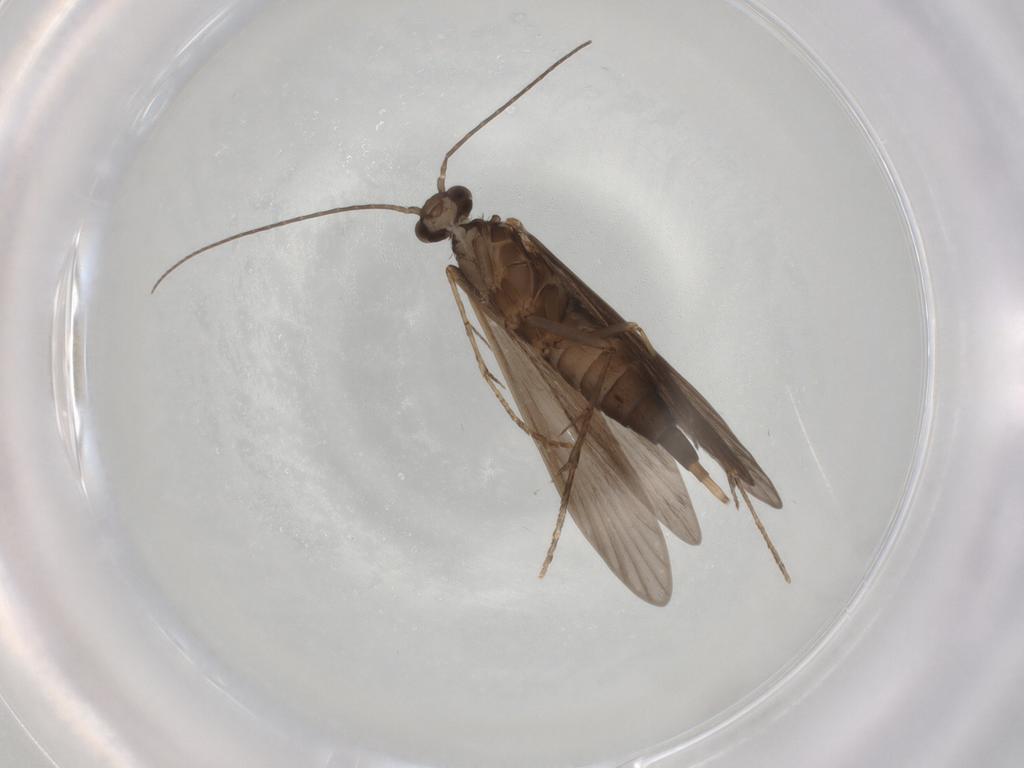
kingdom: Animalia
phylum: Arthropoda
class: Insecta
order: Trichoptera
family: Xiphocentronidae
